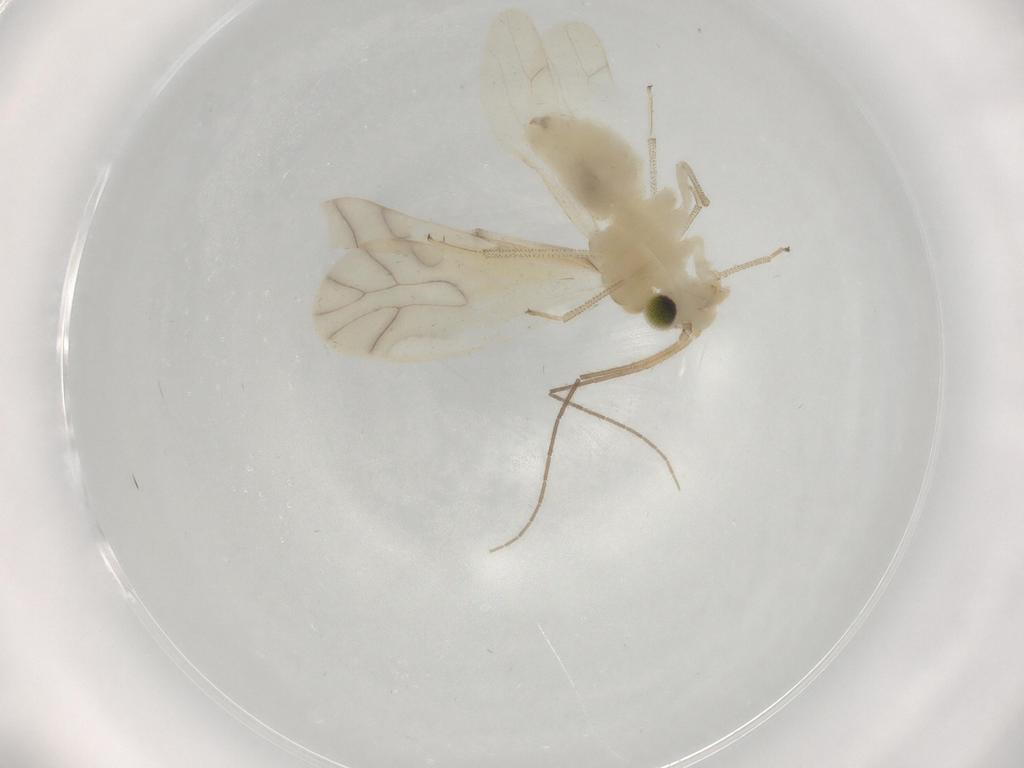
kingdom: Animalia
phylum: Arthropoda
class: Insecta
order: Psocodea
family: Caeciliusidae
